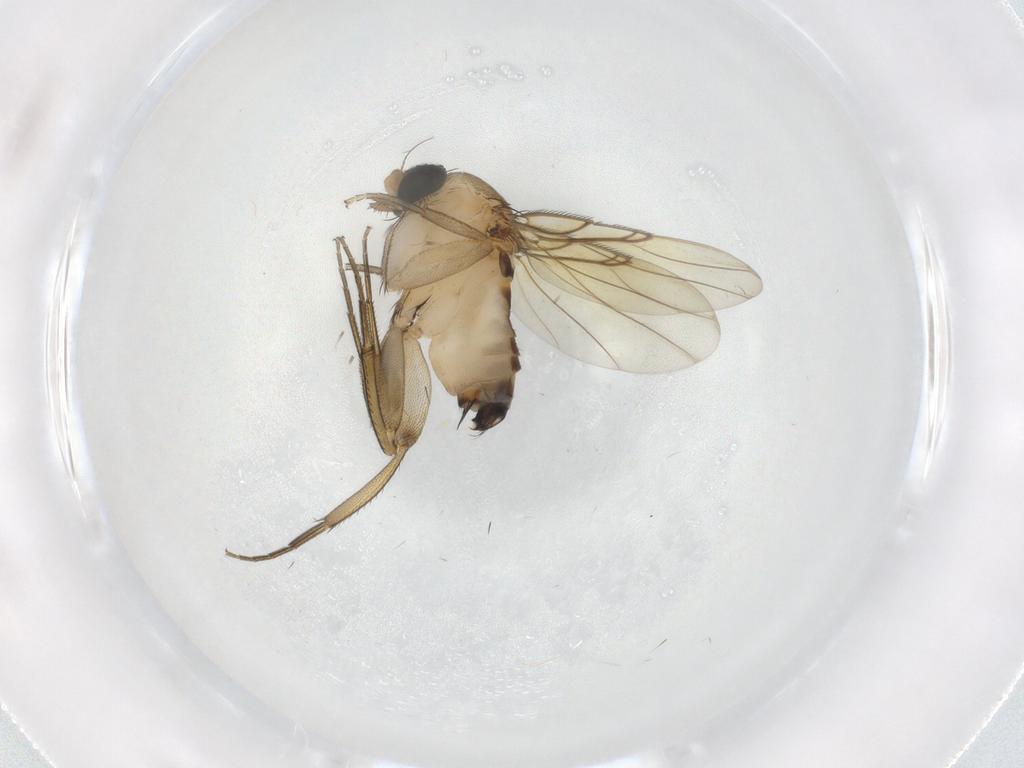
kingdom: Animalia
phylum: Arthropoda
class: Insecta
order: Diptera
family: Phoridae
